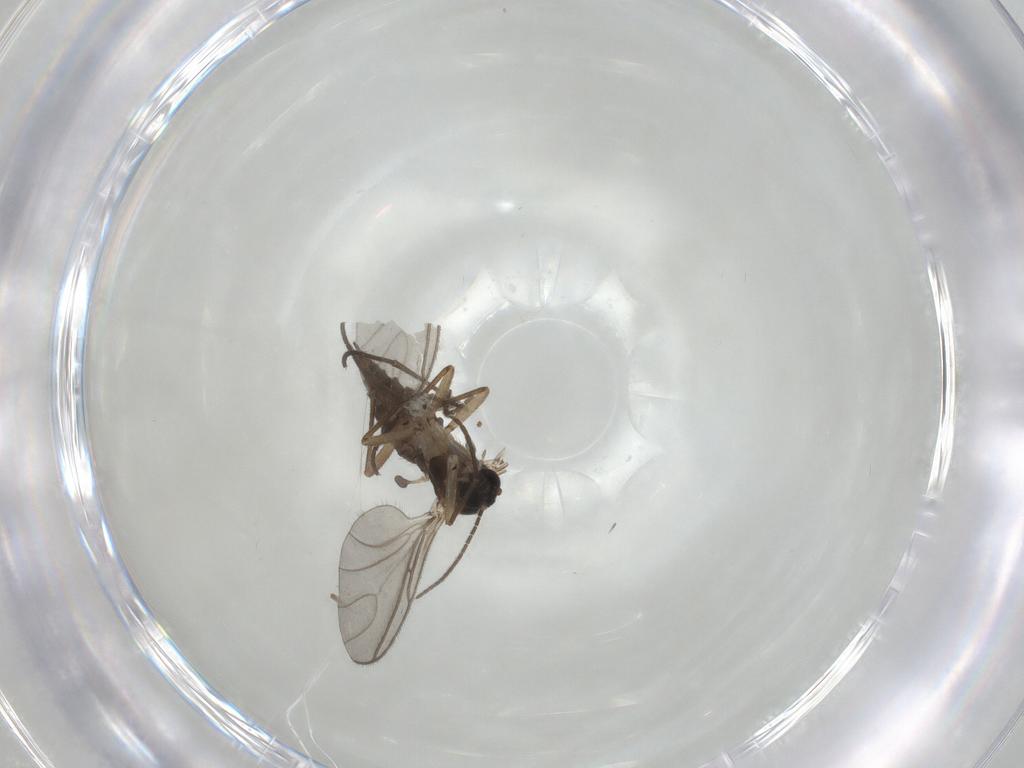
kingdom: Animalia
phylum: Arthropoda
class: Insecta
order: Diptera
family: Sciaridae
